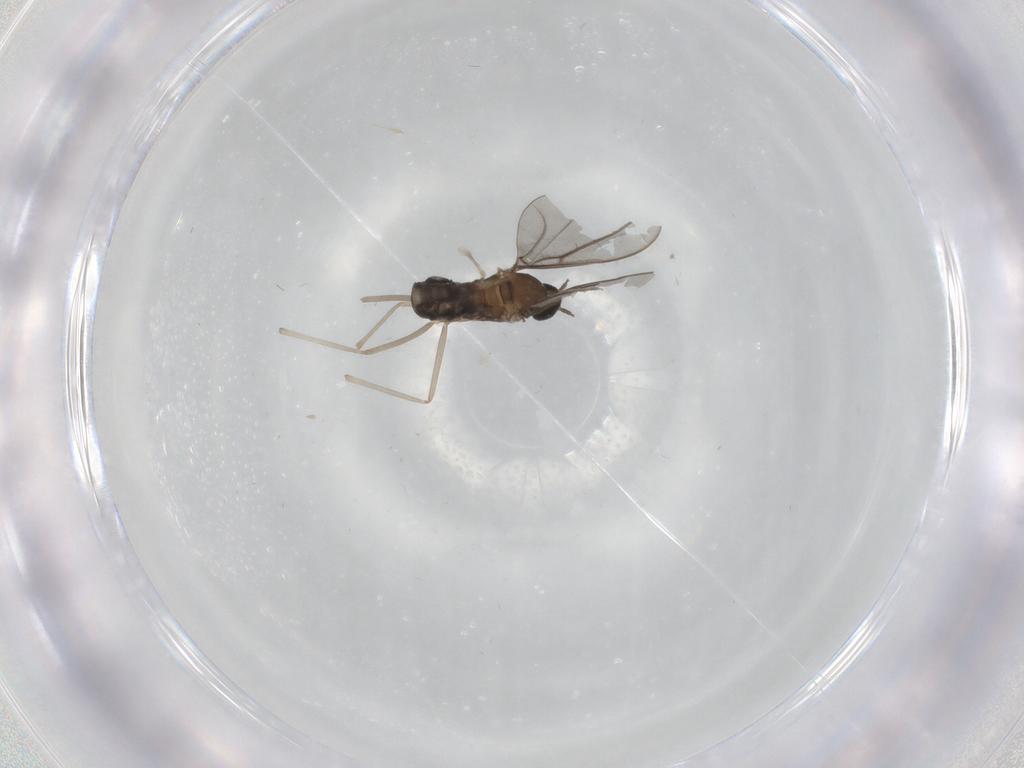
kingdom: Animalia
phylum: Arthropoda
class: Insecta
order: Diptera
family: Cecidomyiidae
